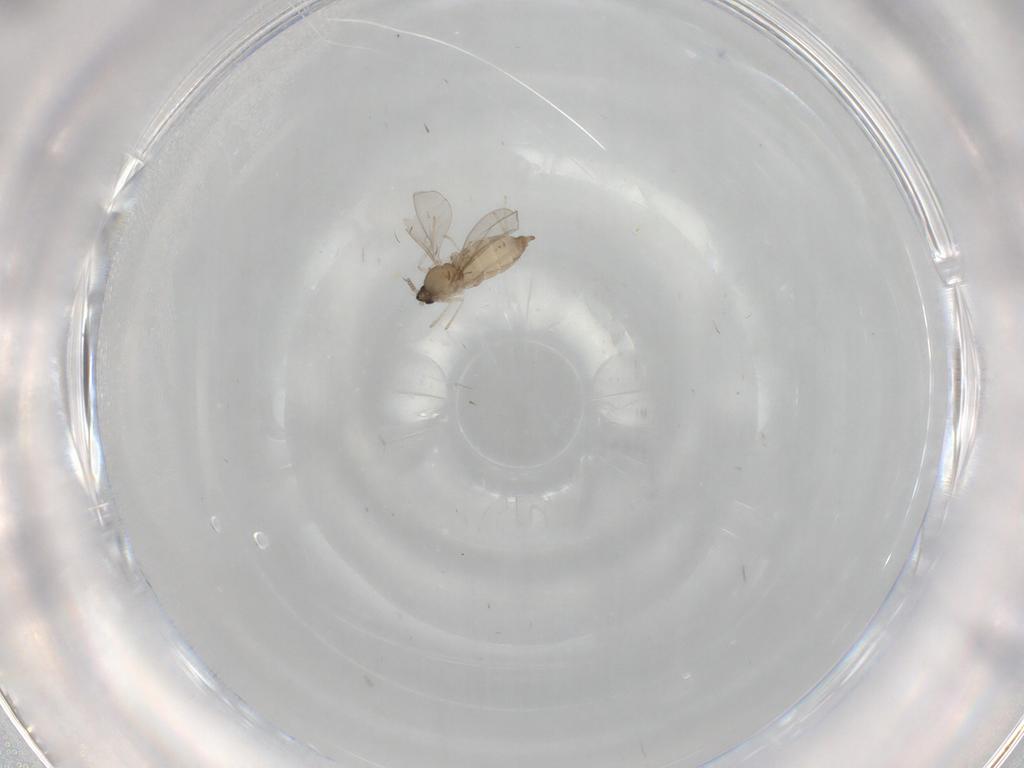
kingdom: Animalia
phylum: Arthropoda
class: Insecta
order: Diptera
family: Cecidomyiidae
